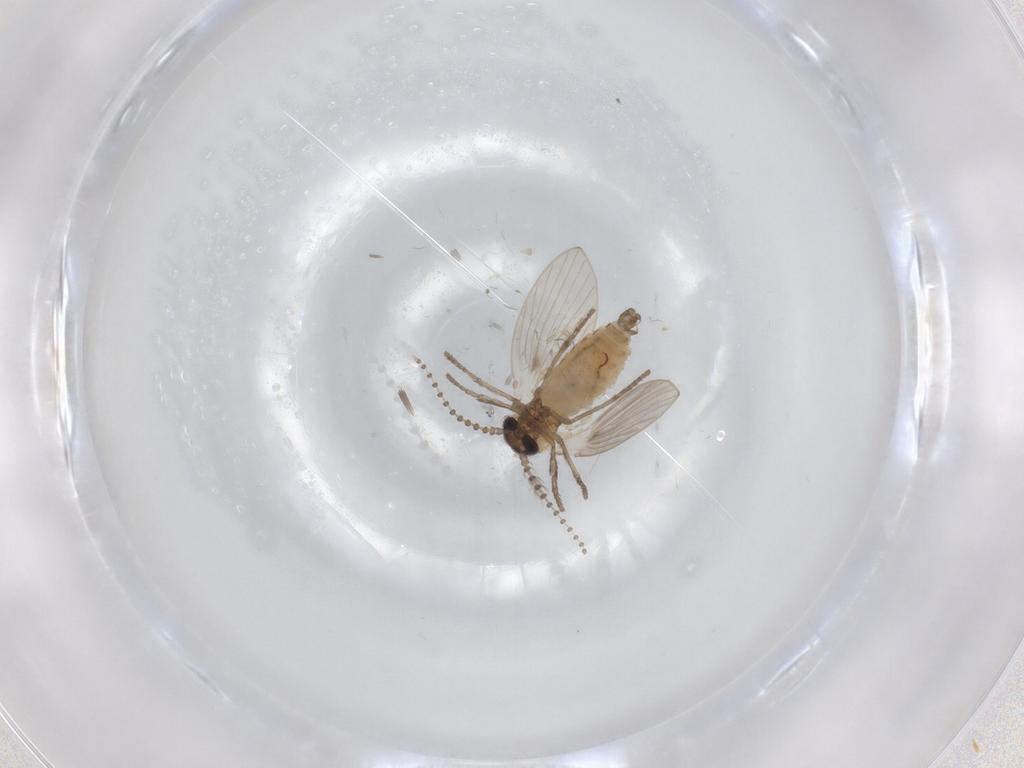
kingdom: Animalia
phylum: Arthropoda
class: Insecta
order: Diptera
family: Psychodidae
